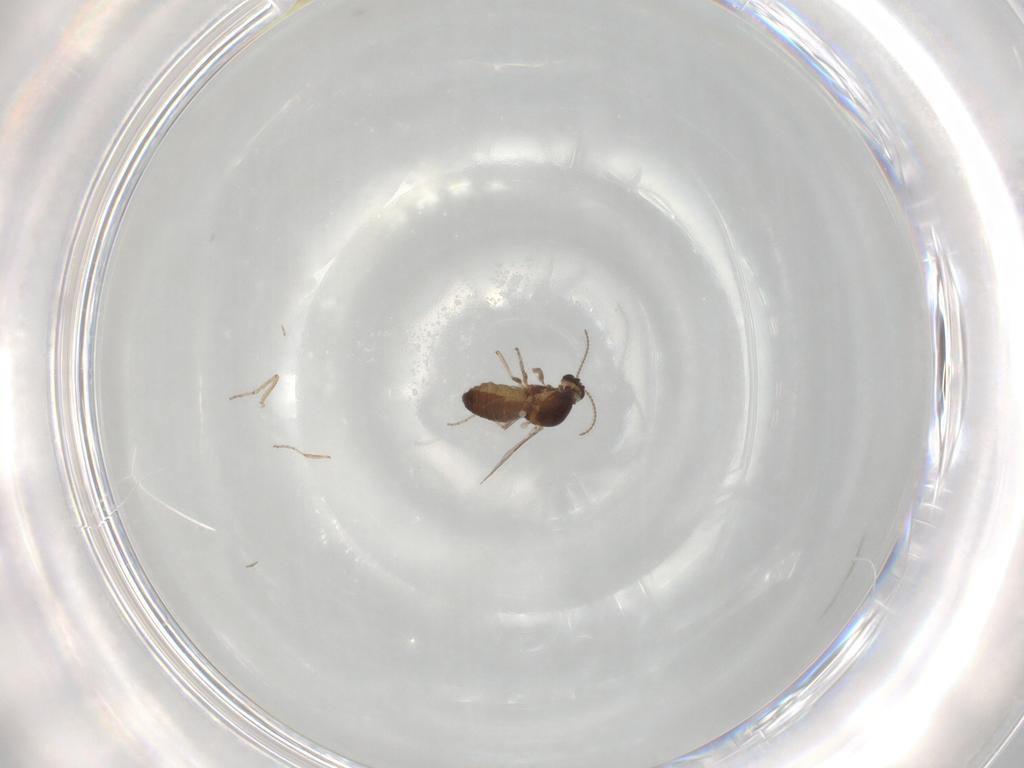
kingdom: Animalia
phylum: Arthropoda
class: Insecta
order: Diptera
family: Ceratopogonidae
